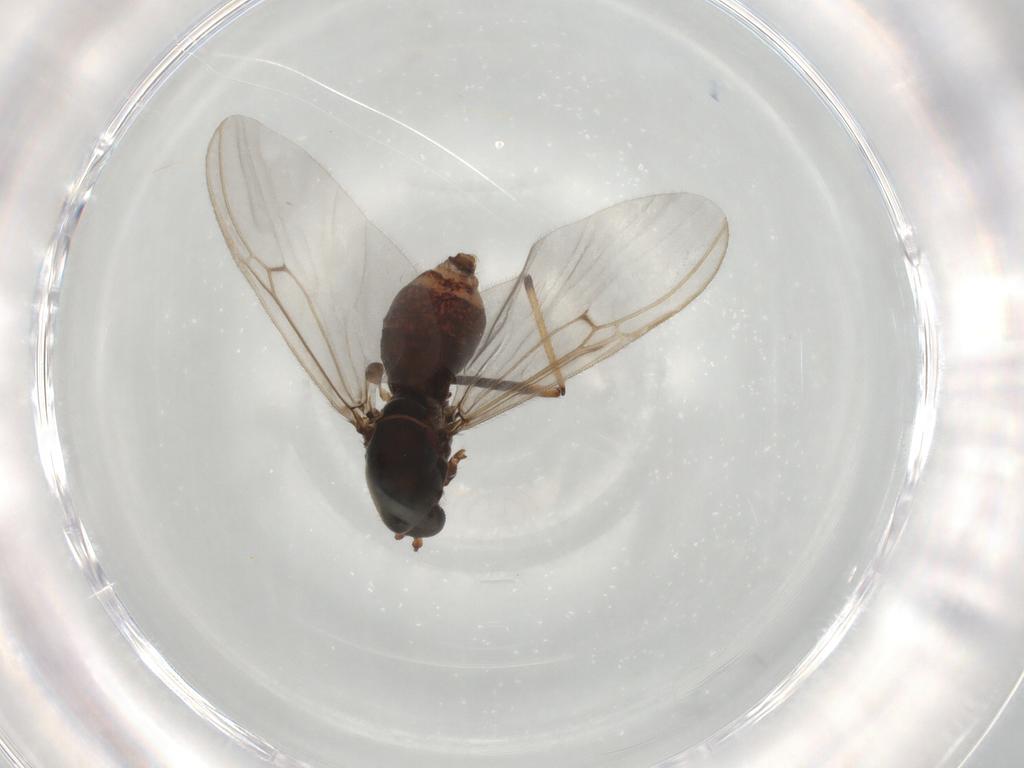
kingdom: Animalia
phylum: Arthropoda
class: Insecta
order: Diptera
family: Ceratopogonidae
